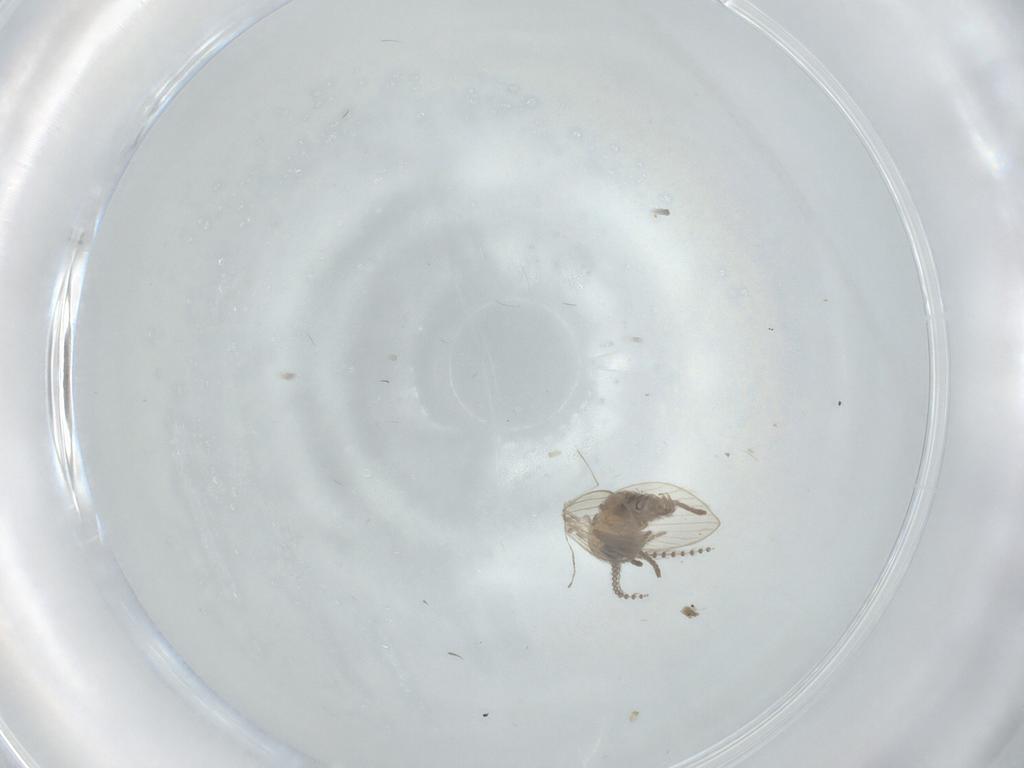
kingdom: Animalia
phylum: Arthropoda
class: Insecta
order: Diptera
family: Psychodidae
